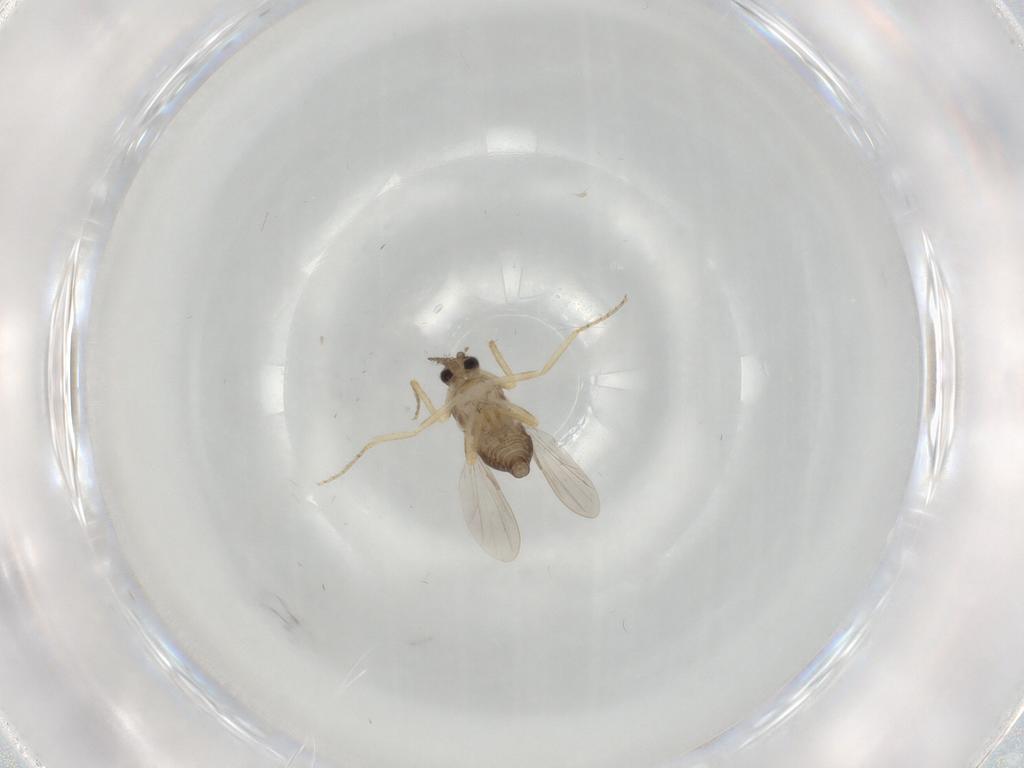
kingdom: Animalia
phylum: Arthropoda
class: Insecta
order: Diptera
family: Ceratopogonidae
